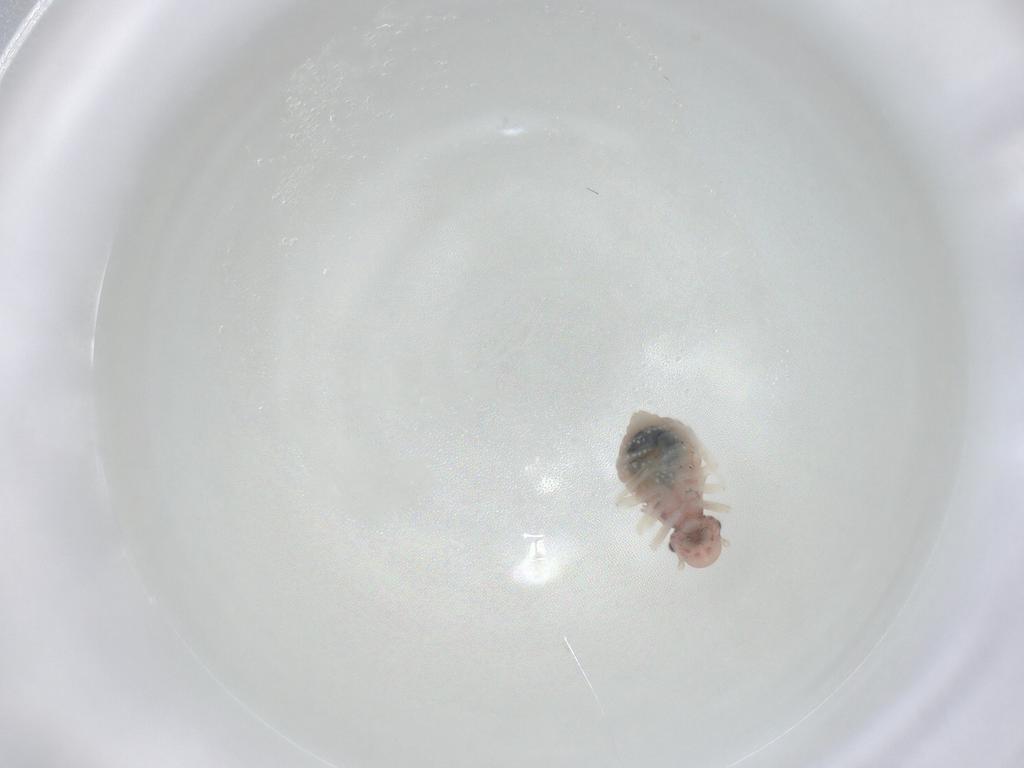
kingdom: Animalia
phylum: Arthropoda
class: Insecta
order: Psocodea
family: Caeciliusidae
